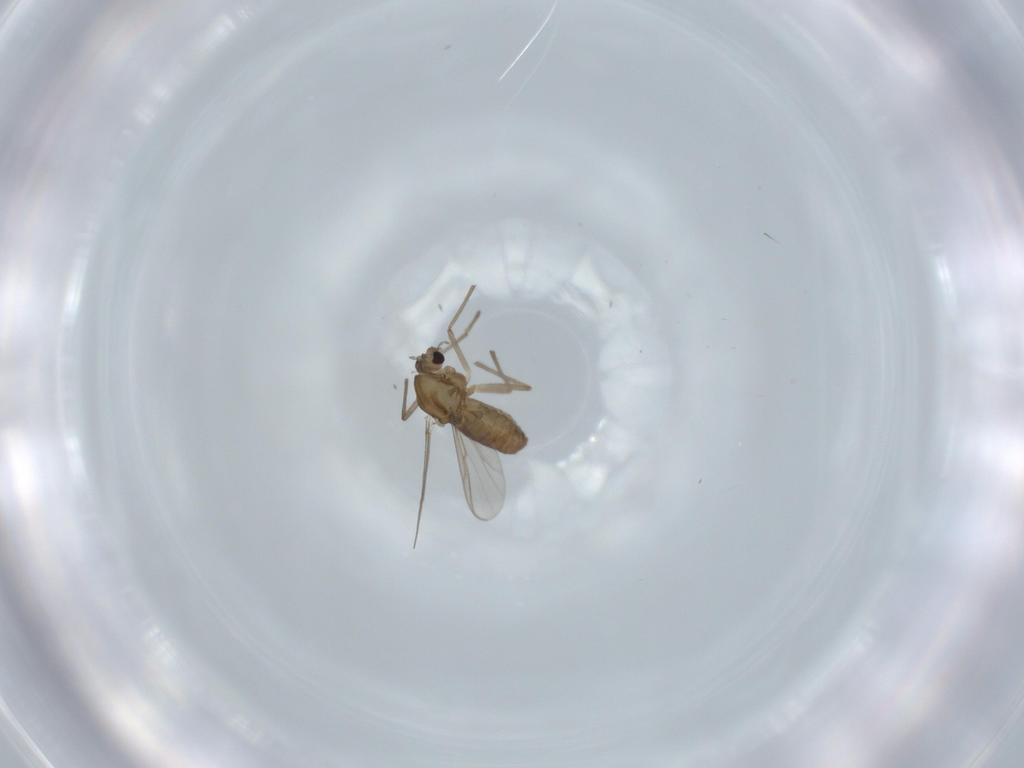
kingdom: Animalia
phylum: Arthropoda
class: Insecta
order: Diptera
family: Chironomidae
